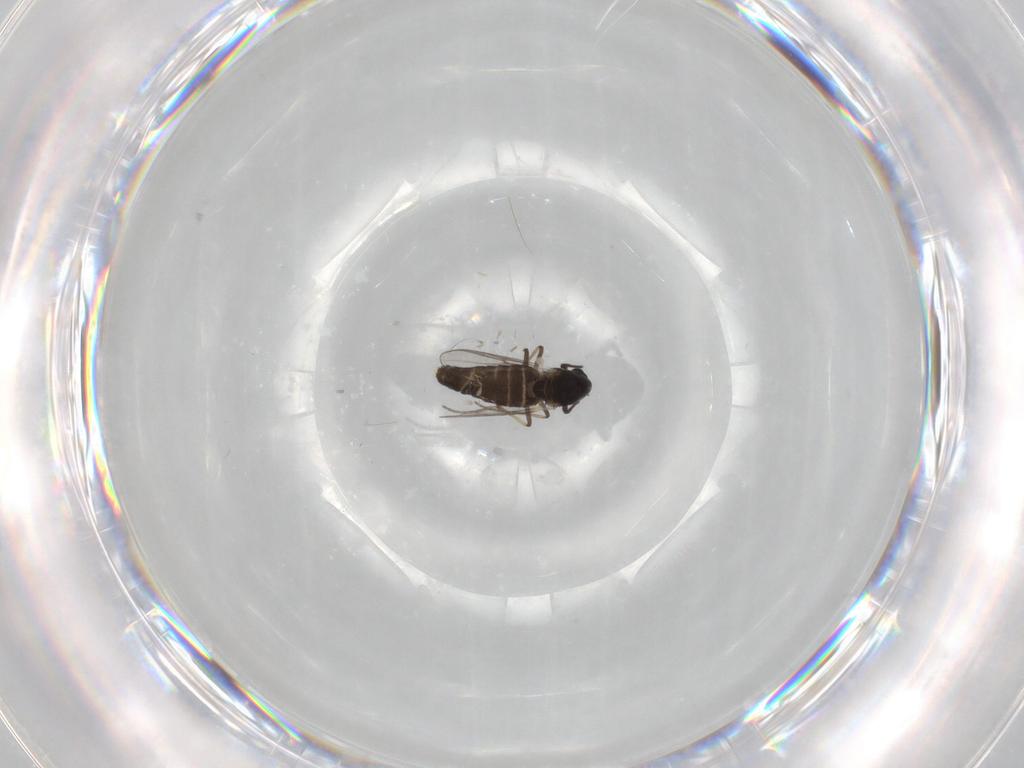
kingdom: Animalia
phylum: Arthropoda
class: Insecta
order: Diptera
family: Chironomidae
